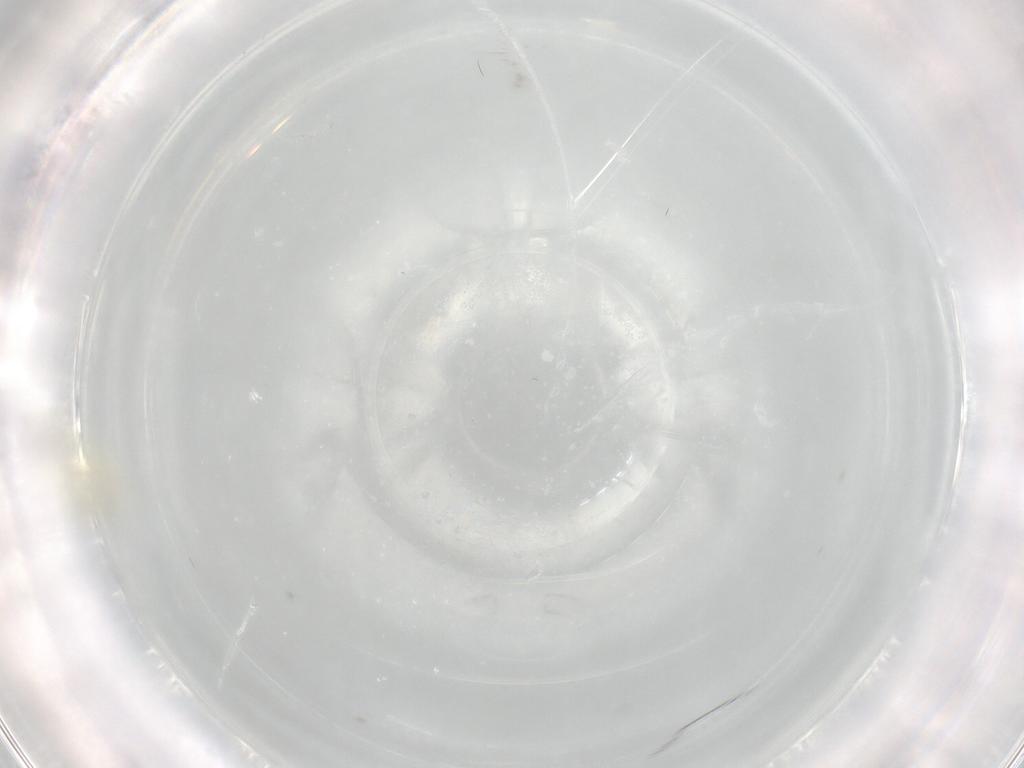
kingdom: Animalia
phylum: Arthropoda
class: Insecta
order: Hemiptera
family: Aleyrodidae
